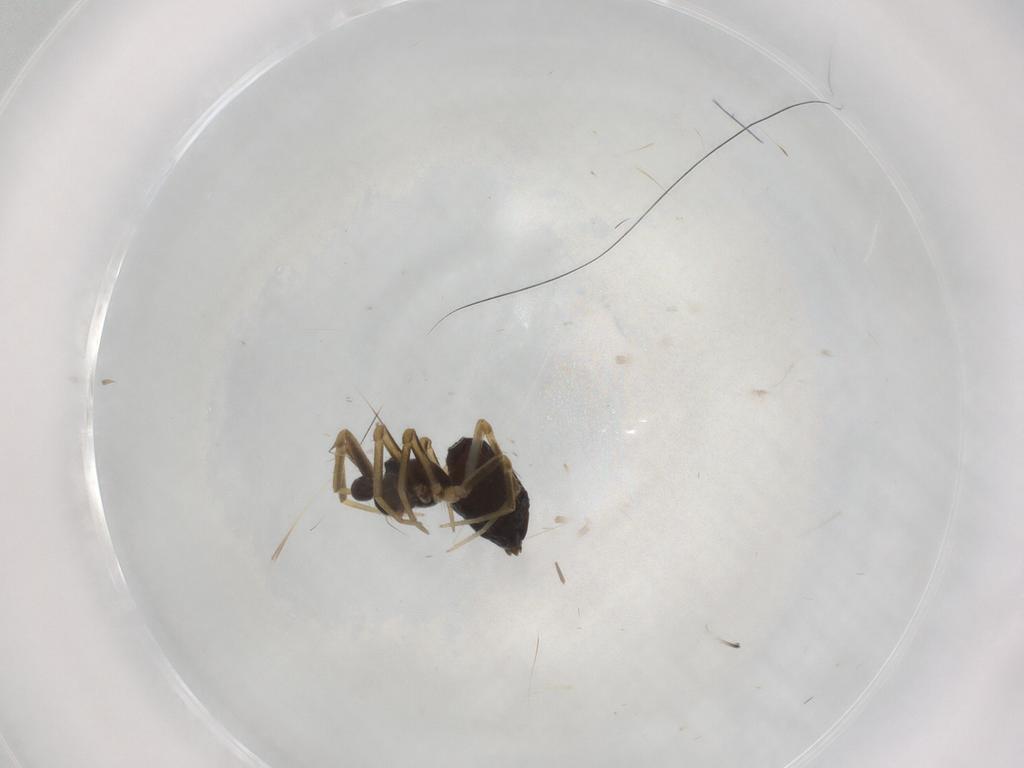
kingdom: Animalia
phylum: Arthropoda
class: Arachnida
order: Araneae
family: Linyphiidae
